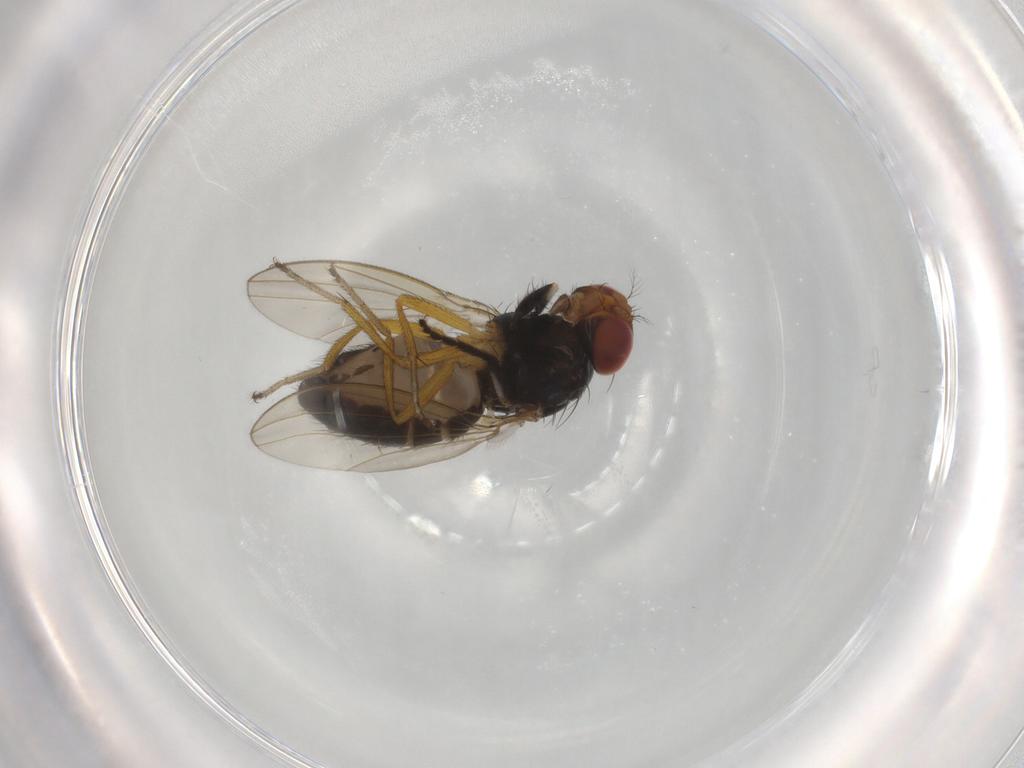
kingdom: Animalia
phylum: Arthropoda
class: Insecta
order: Diptera
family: Drosophilidae
